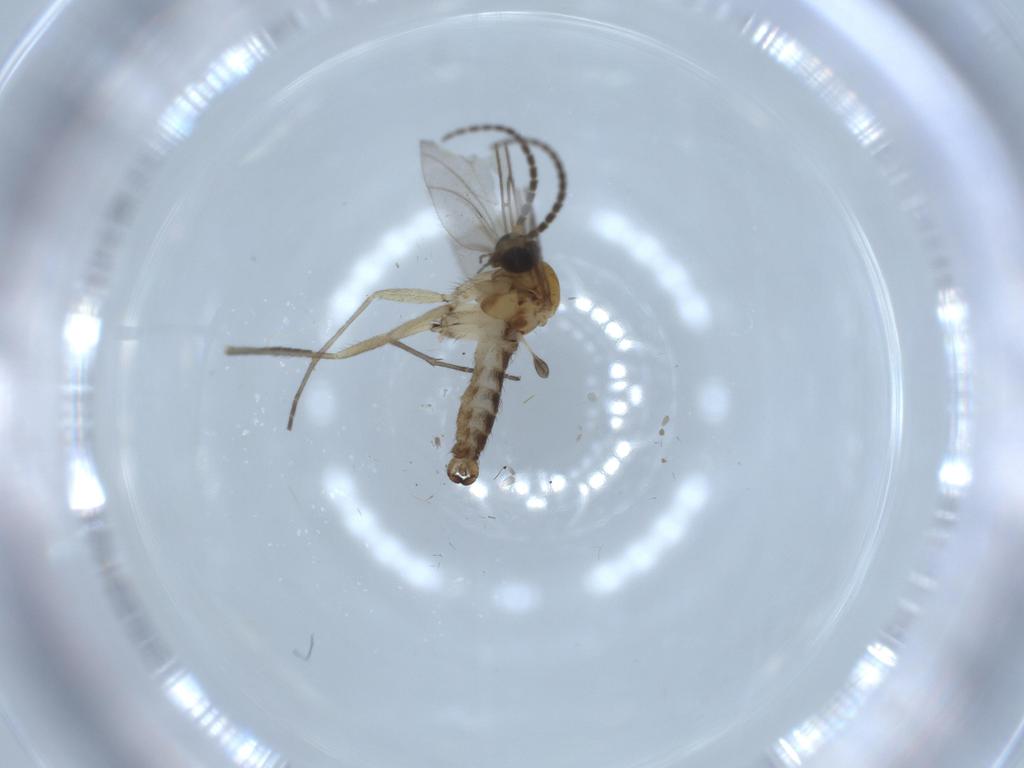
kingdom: Animalia
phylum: Arthropoda
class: Insecta
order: Diptera
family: Sciaridae
